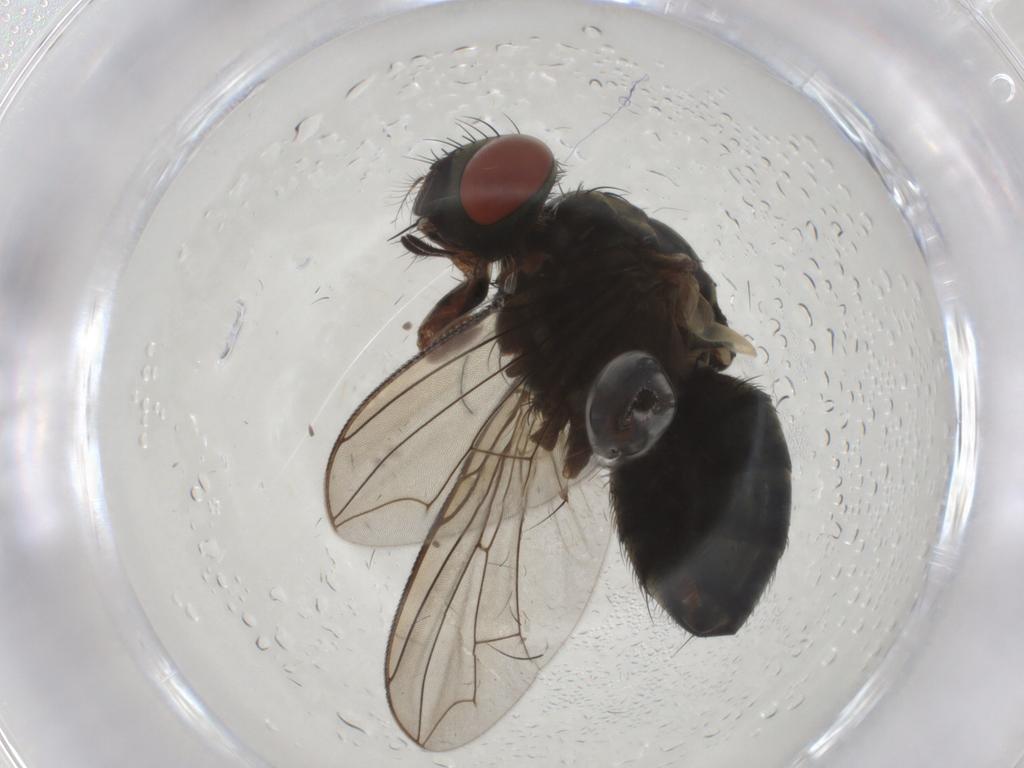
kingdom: Animalia
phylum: Arthropoda
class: Insecta
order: Diptera
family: Sarcophagidae
